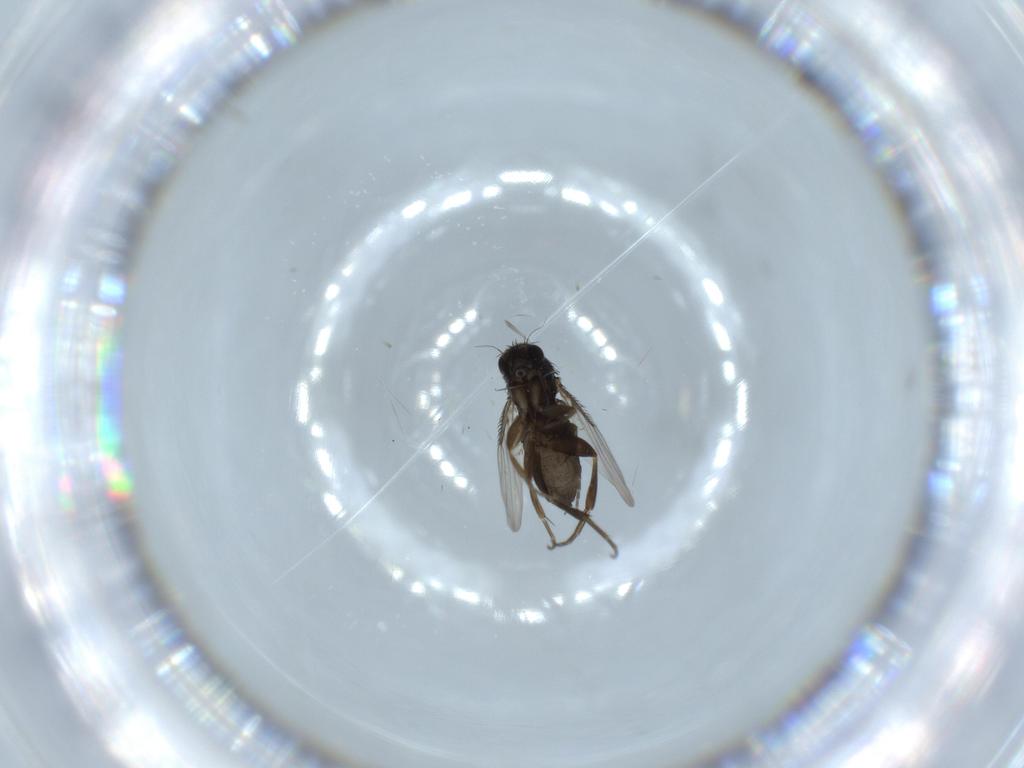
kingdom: Animalia
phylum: Arthropoda
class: Insecta
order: Diptera
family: Phoridae
